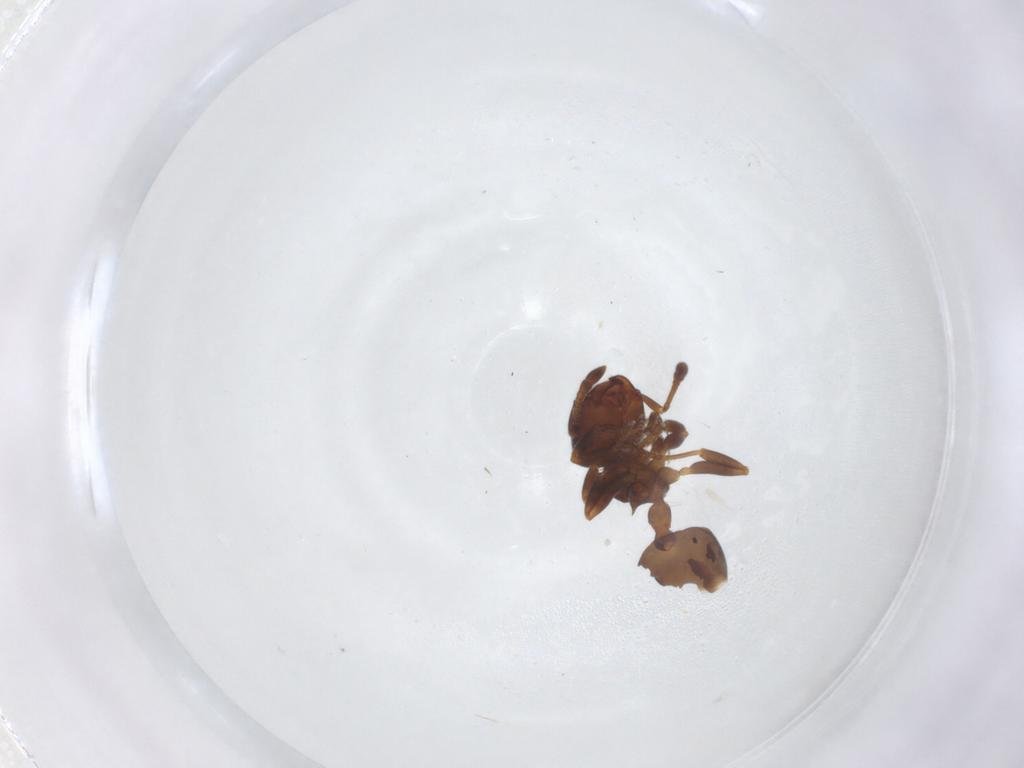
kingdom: Animalia
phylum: Arthropoda
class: Insecta
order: Hymenoptera
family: Formicidae
